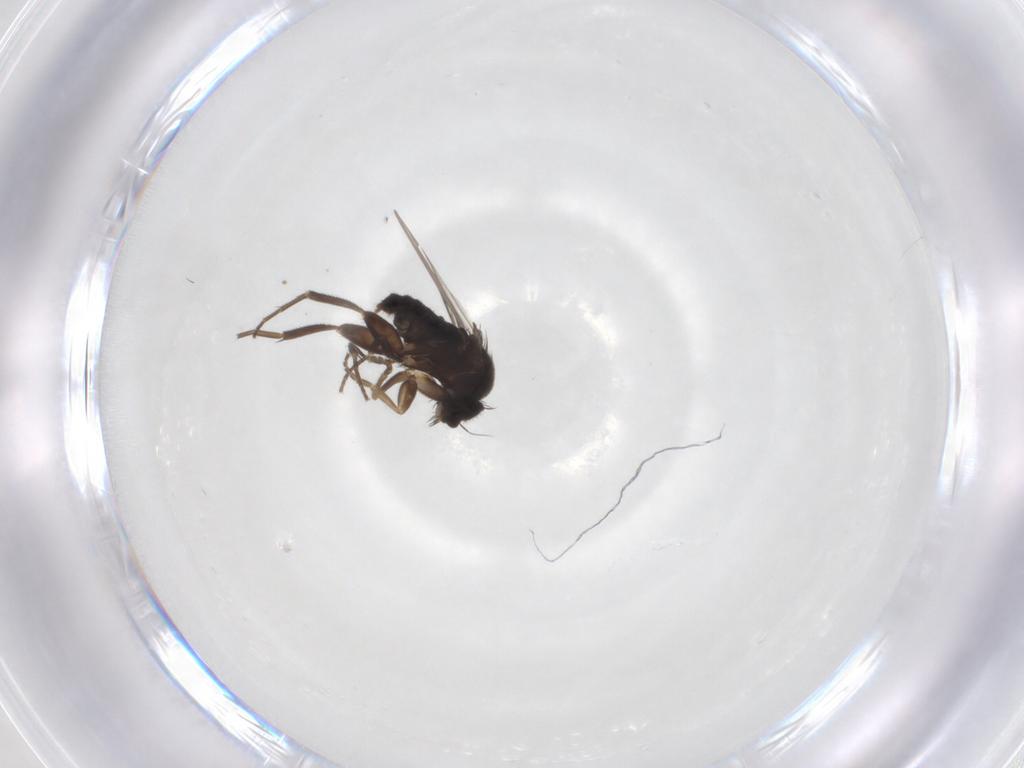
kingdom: Animalia
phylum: Arthropoda
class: Insecta
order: Diptera
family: Phoridae
